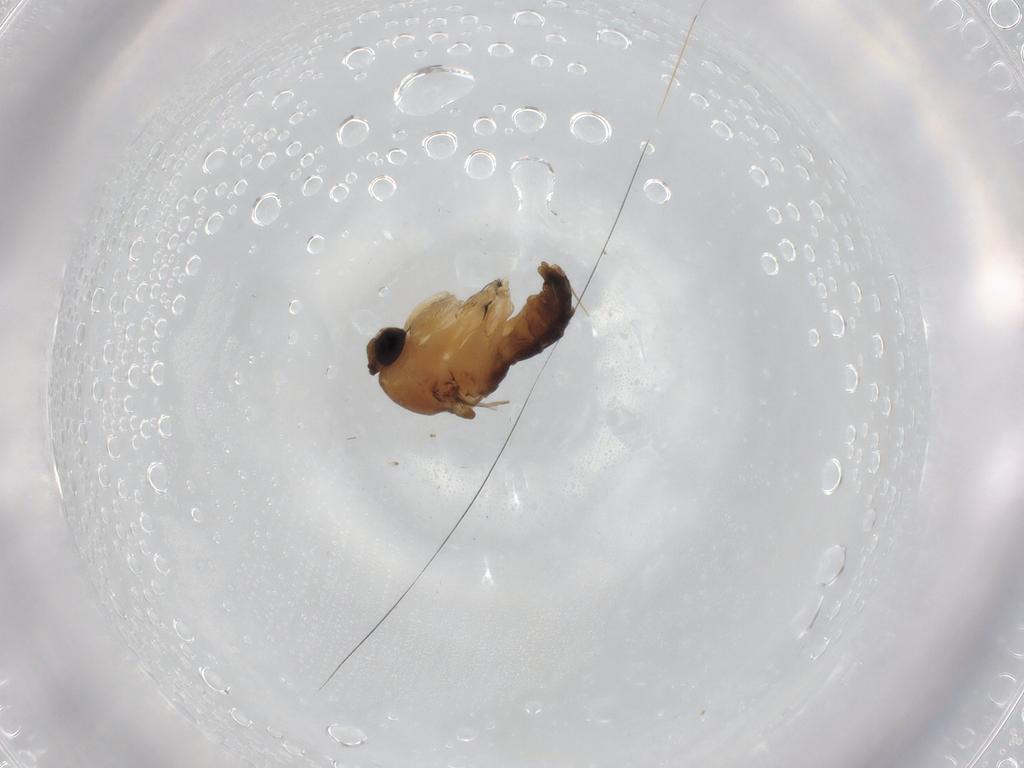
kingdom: Animalia
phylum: Arthropoda
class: Insecta
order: Diptera
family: Phoridae
